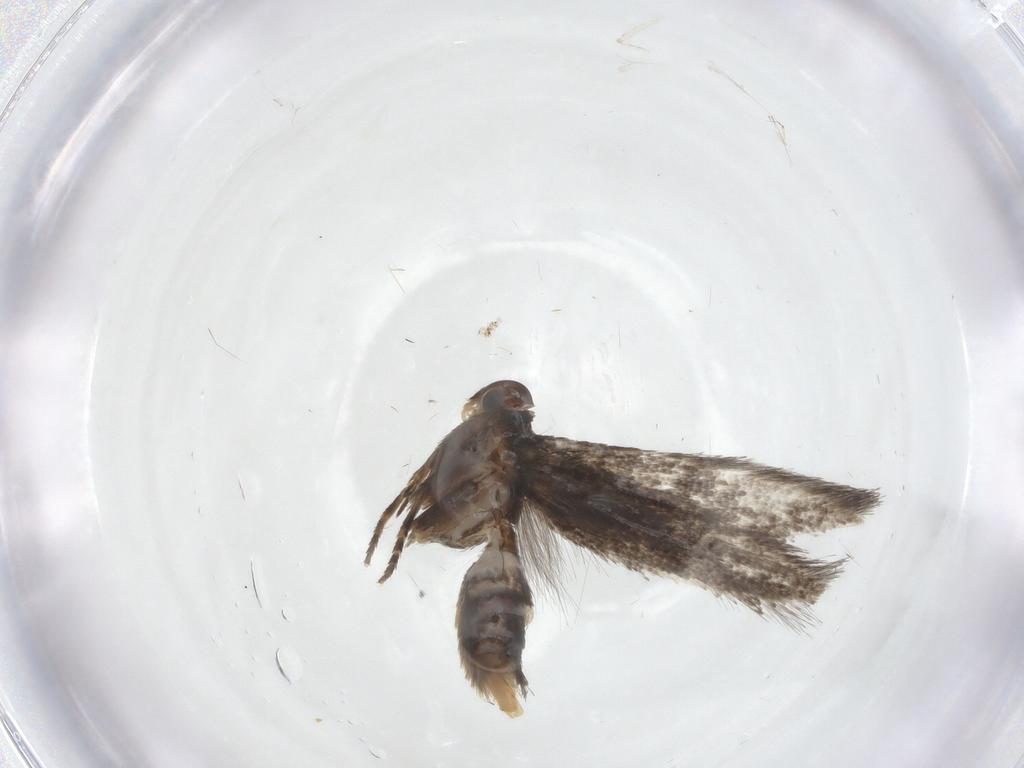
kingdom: Animalia
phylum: Arthropoda
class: Insecta
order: Lepidoptera
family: Elachistidae
